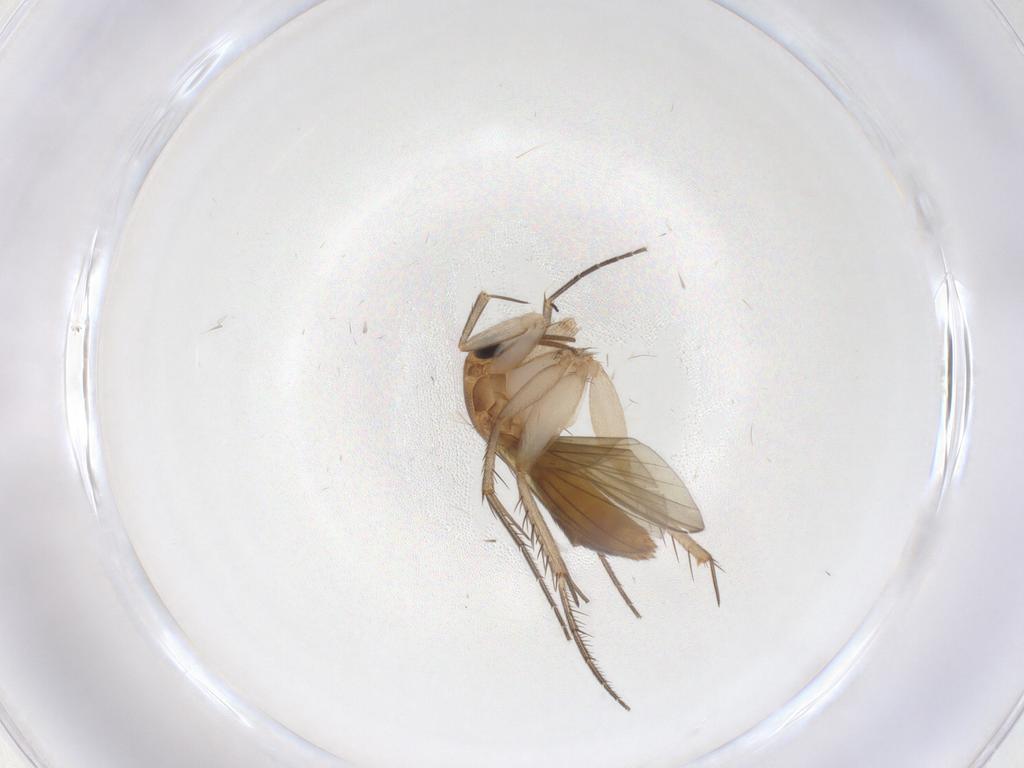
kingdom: Animalia
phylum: Arthropoda
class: Insecta
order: Diptera
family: Mycetophilidae
